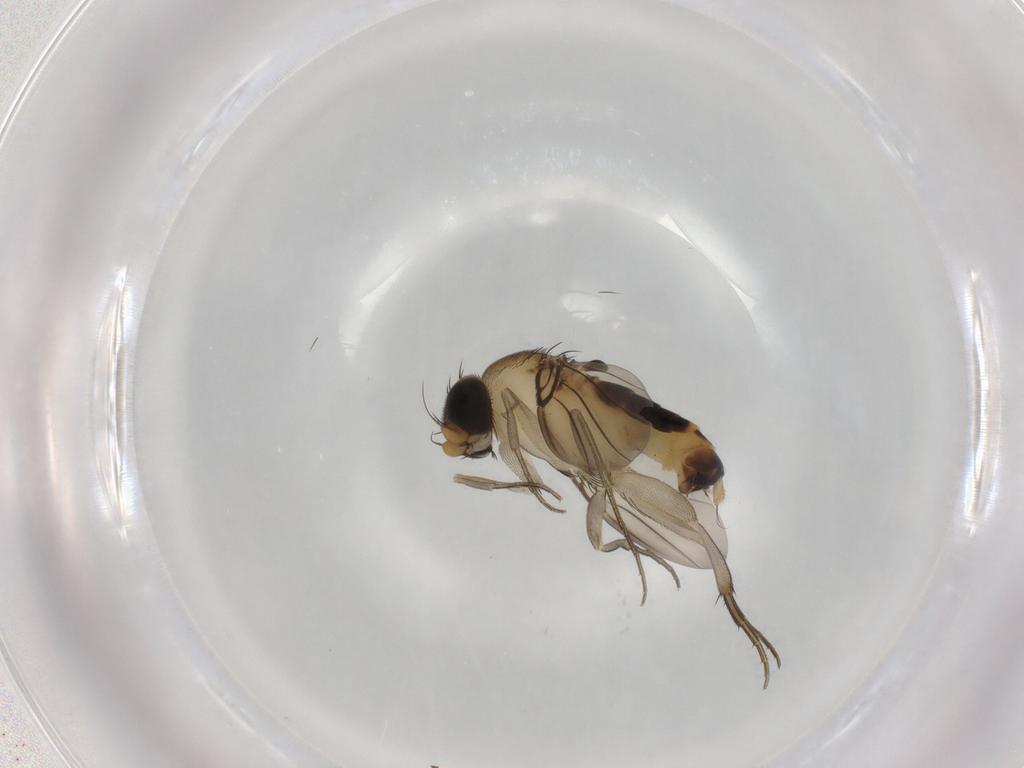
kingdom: Animalia
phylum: Arthropoda
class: Insecta
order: Diptera
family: Phoridae
